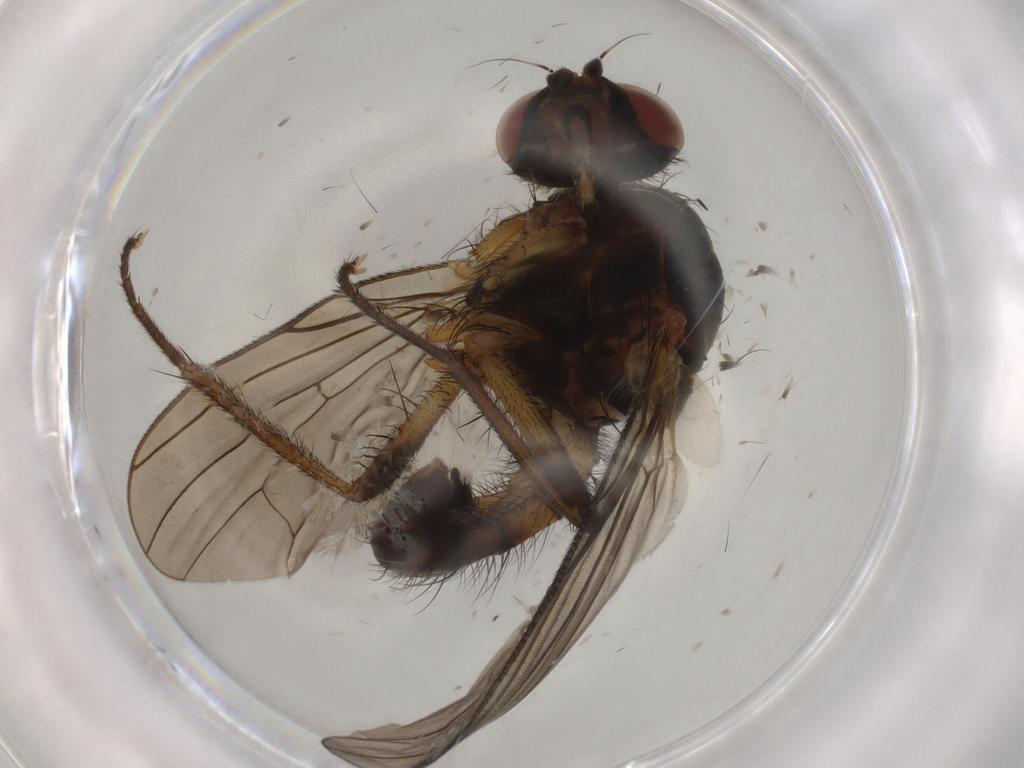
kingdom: Animalia
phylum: Arthropoda
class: Insecta
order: Diptera
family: Anthomyiidae
